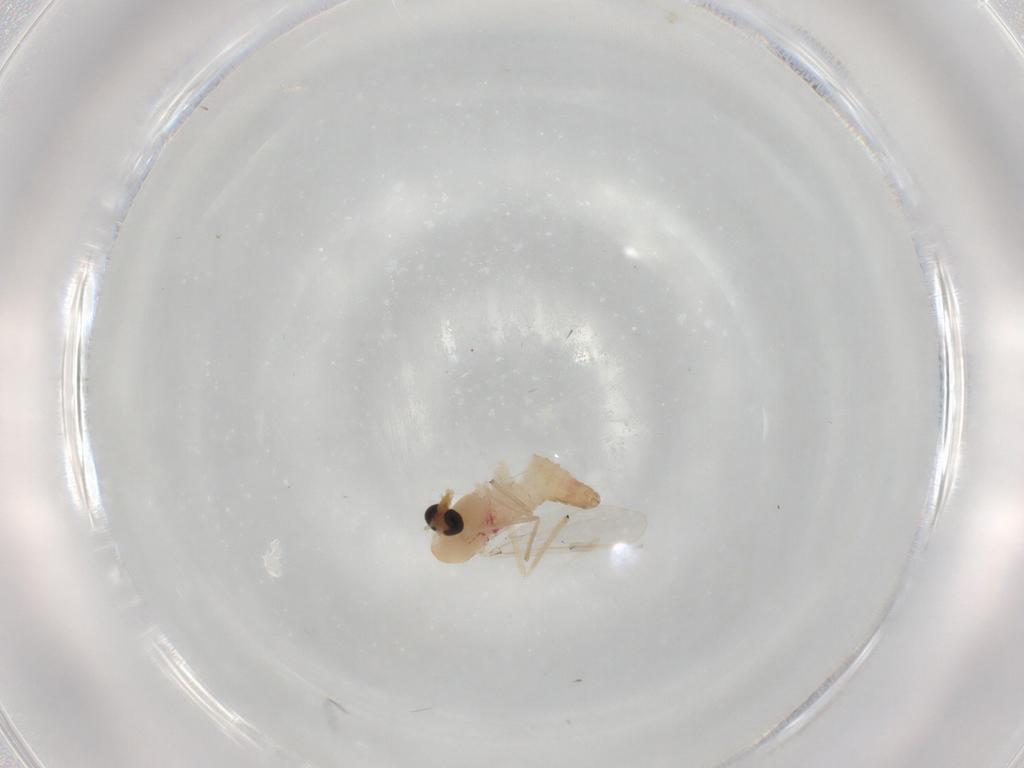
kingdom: Animalia
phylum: Arthropoda
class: Insecta
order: Diptera
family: Tachinidae
